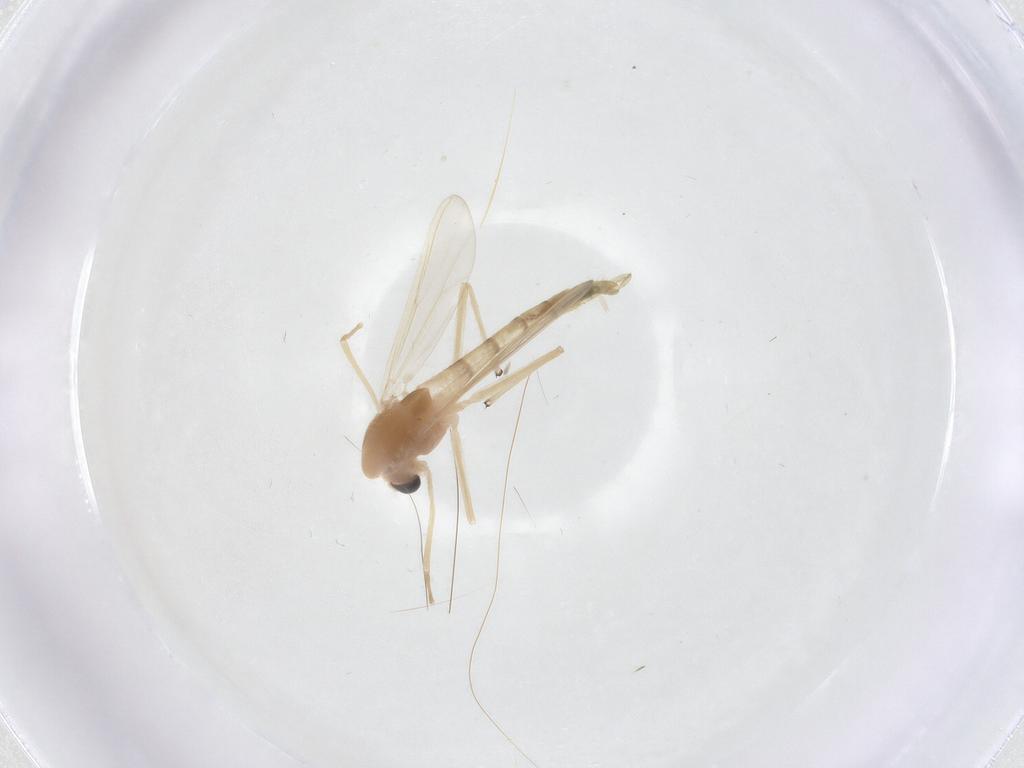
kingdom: Animalia
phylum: Arthropoda
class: Insecta
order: Diptera
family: Chironomidae
